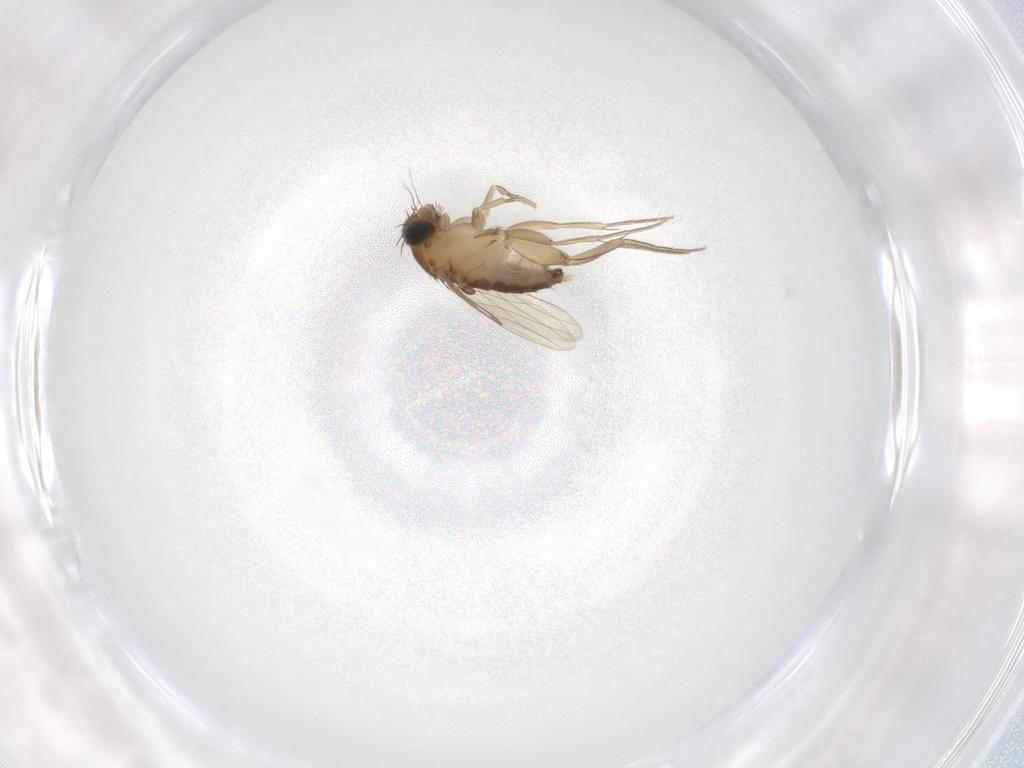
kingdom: Animalia
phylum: Arthropoda
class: Insecta
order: Diptera
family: Phoridae
